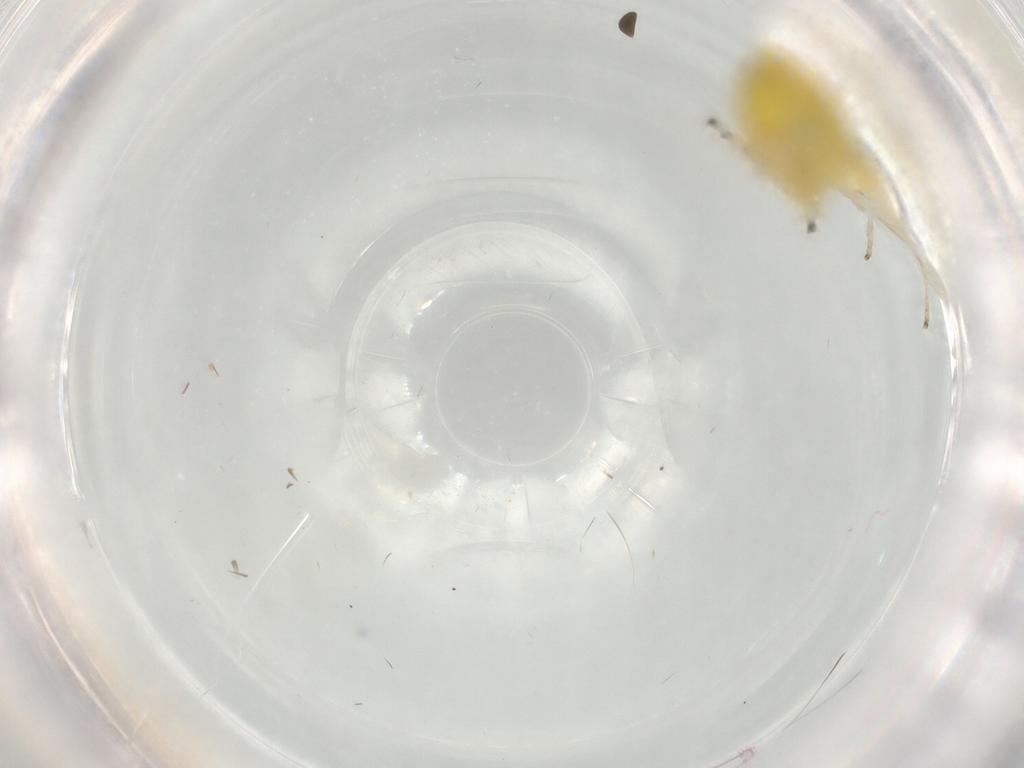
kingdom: Animalia
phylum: Arthropoda
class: Insecta
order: Hemiptera
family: Cicadellidae
